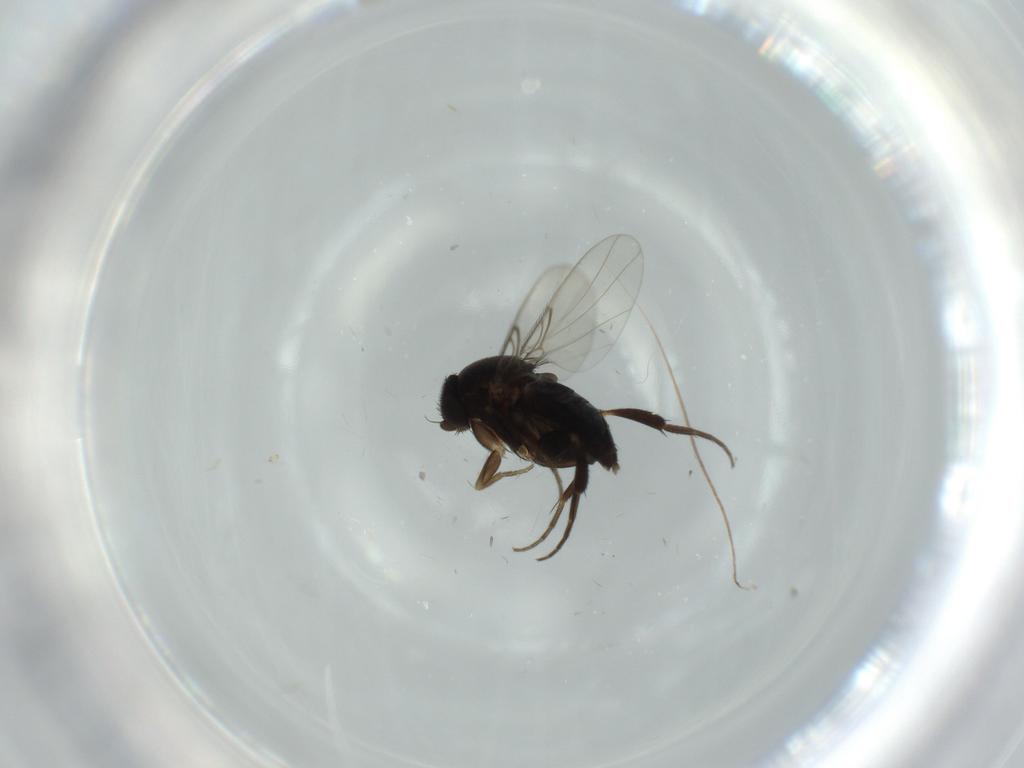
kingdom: Animalia
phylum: Arthropoda
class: Insecta
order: Diptera
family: Phoridae
